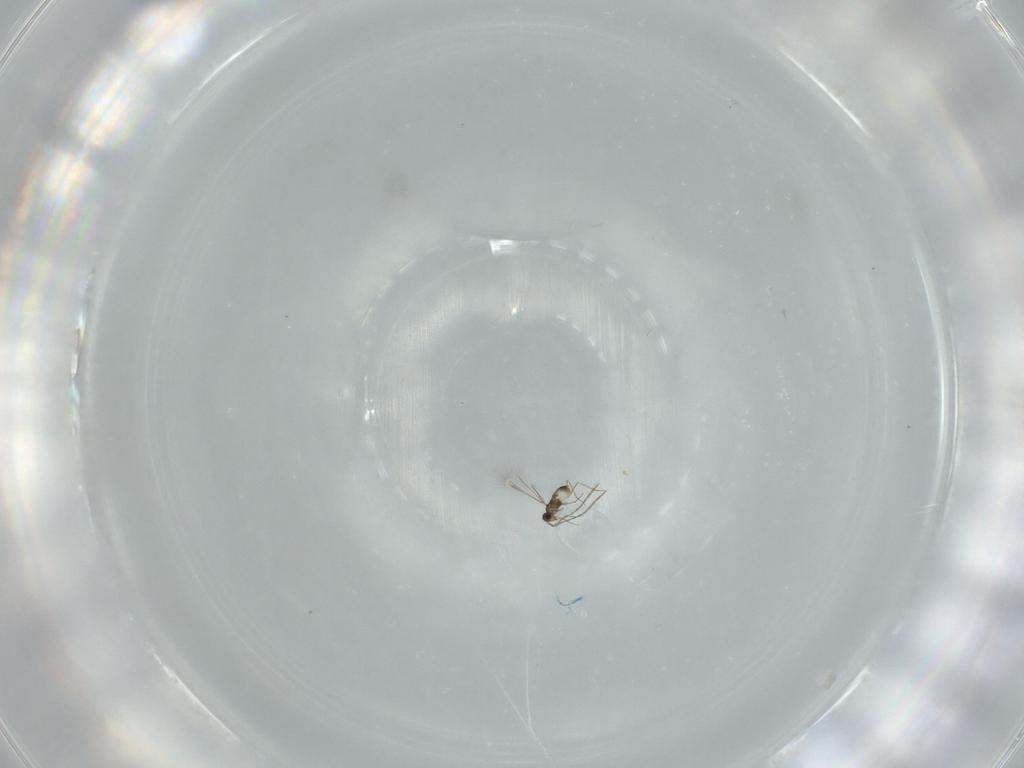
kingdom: Animalia
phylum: Arthropoda
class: Insecta
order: Hymenoptera
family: Mymaridae
